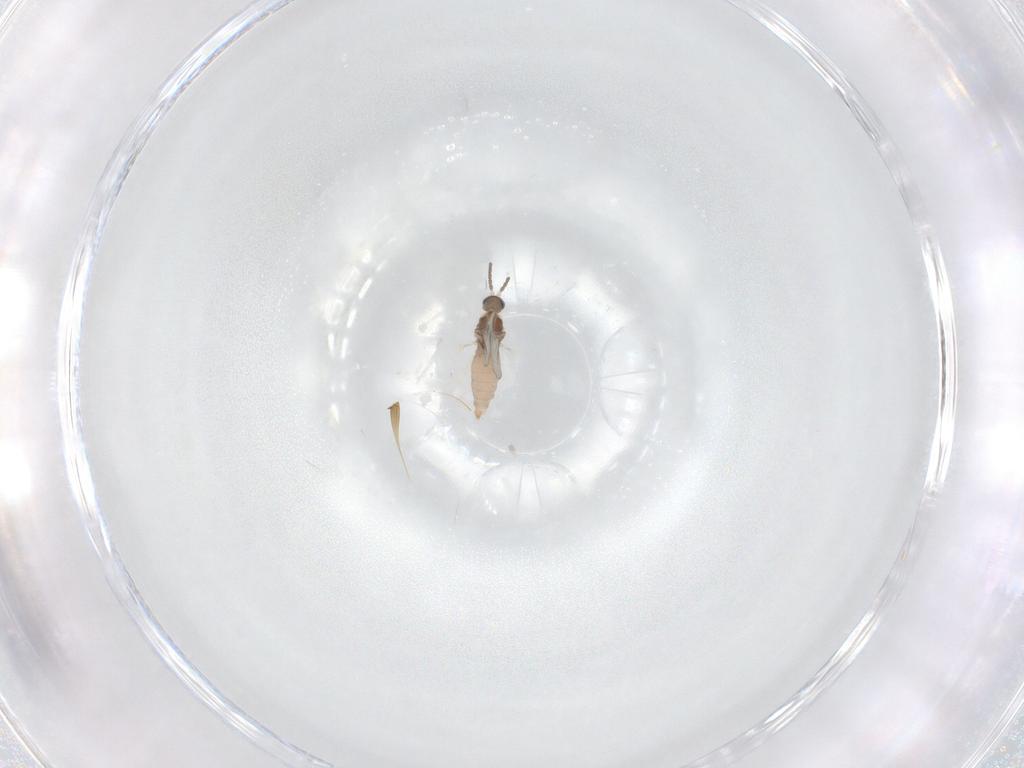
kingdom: Animalia
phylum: Arthropoda
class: Insecta
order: Diptera
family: Cecidomyiidae
